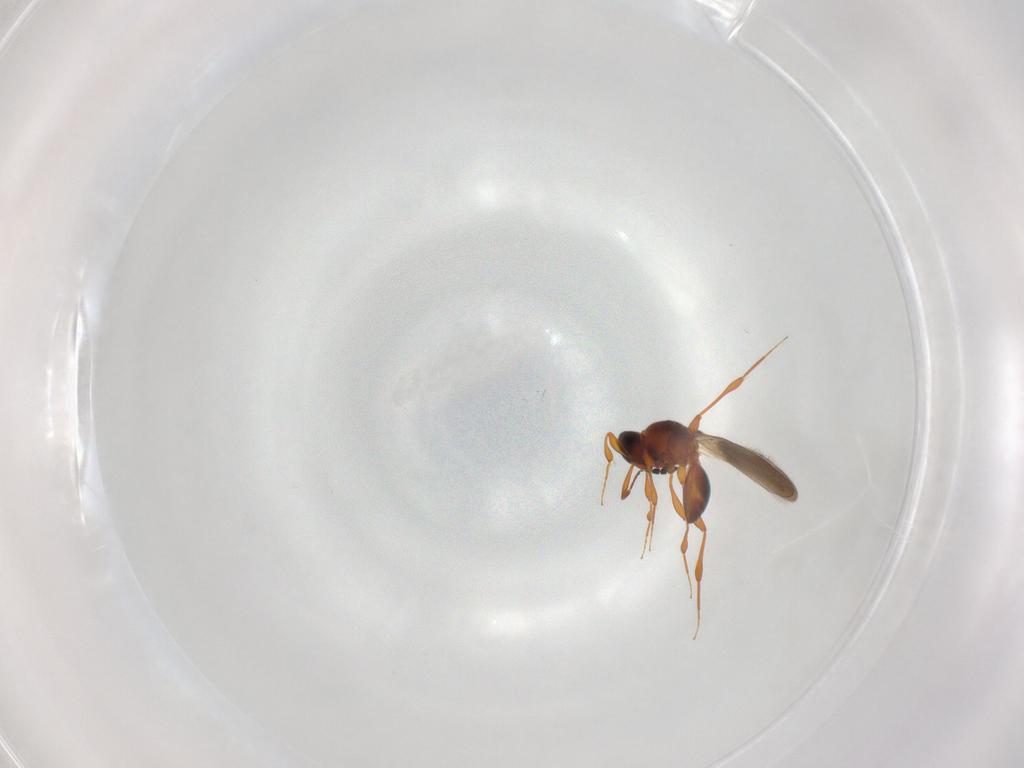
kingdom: Animalia
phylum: Arthropoda
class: Insecta
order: Hymenoptera
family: Platygastridae
